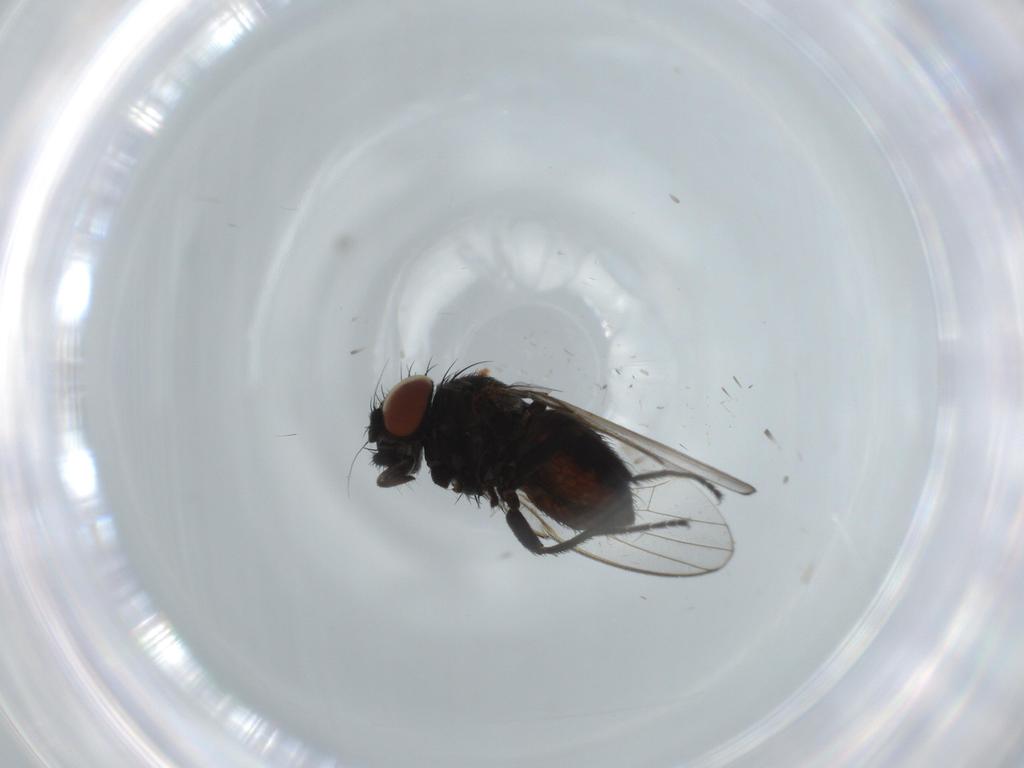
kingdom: Animalia
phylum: Arthropoda
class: Insecta
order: Diptera
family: Milichiidae
